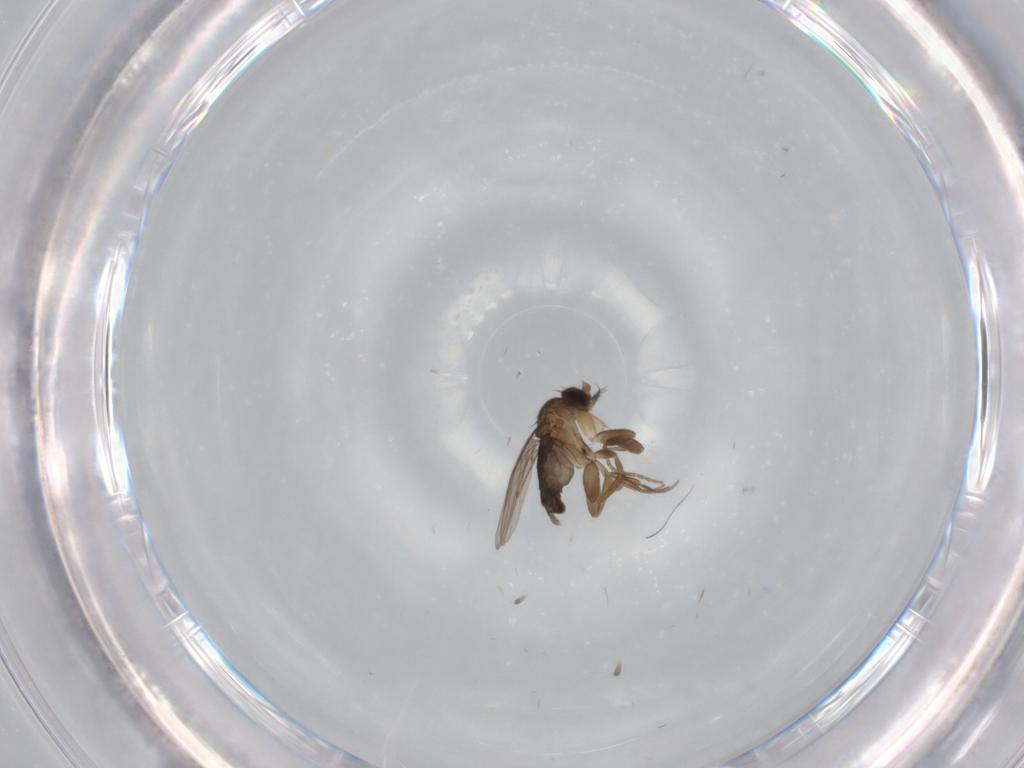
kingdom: Animalia
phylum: Arthropoda
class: Insecta
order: Diptera
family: Phoridae
